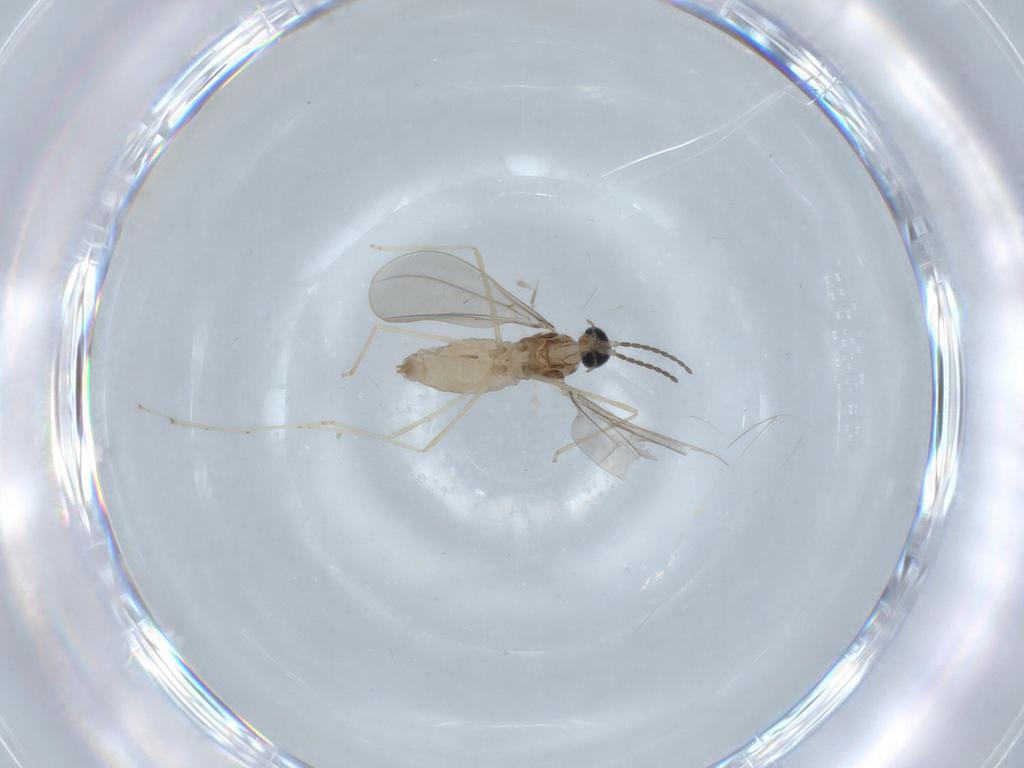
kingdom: Animalia
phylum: Arthropoda
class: Insecta
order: Diptera
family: Cecidomyiidae
